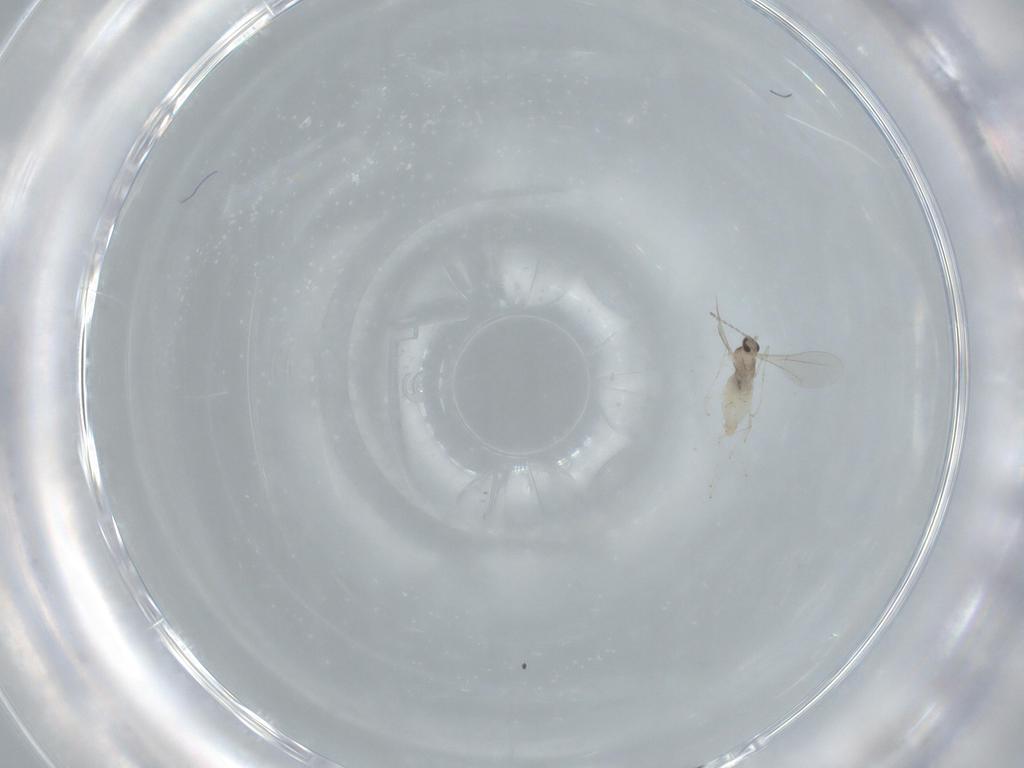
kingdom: Animalia
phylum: Arthropoda
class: Insecta
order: Diptera
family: Cecidomyiidae
